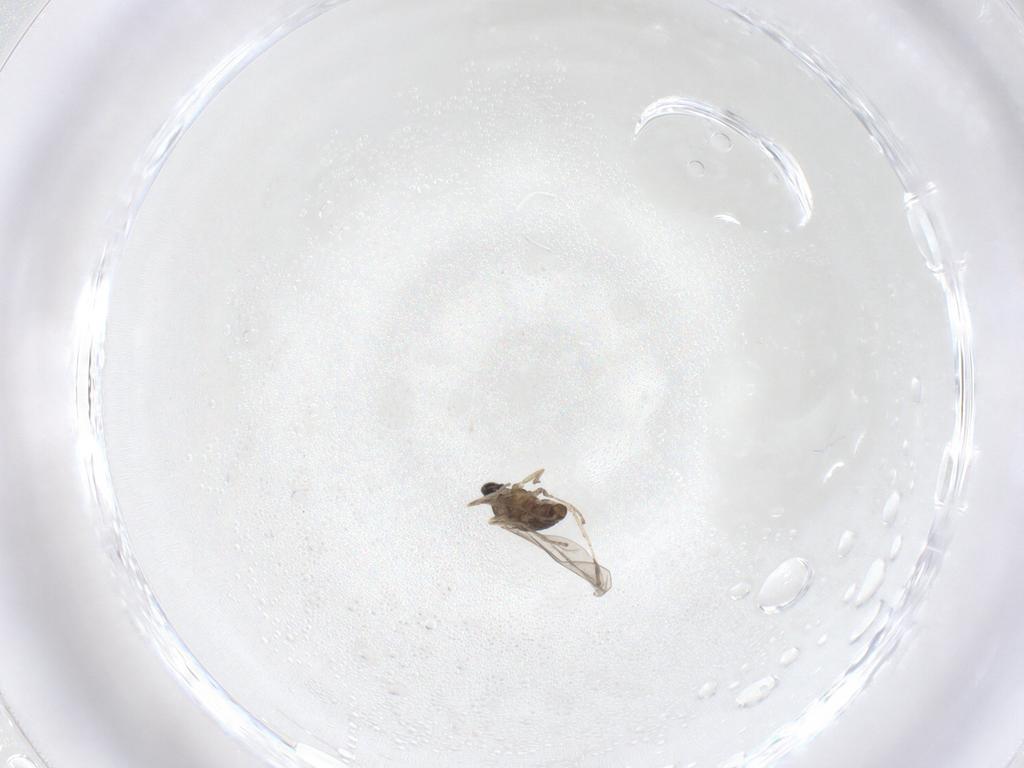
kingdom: Animalia
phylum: Arthropoda
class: Insecta
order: Diptera
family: Cecidomyiidae
